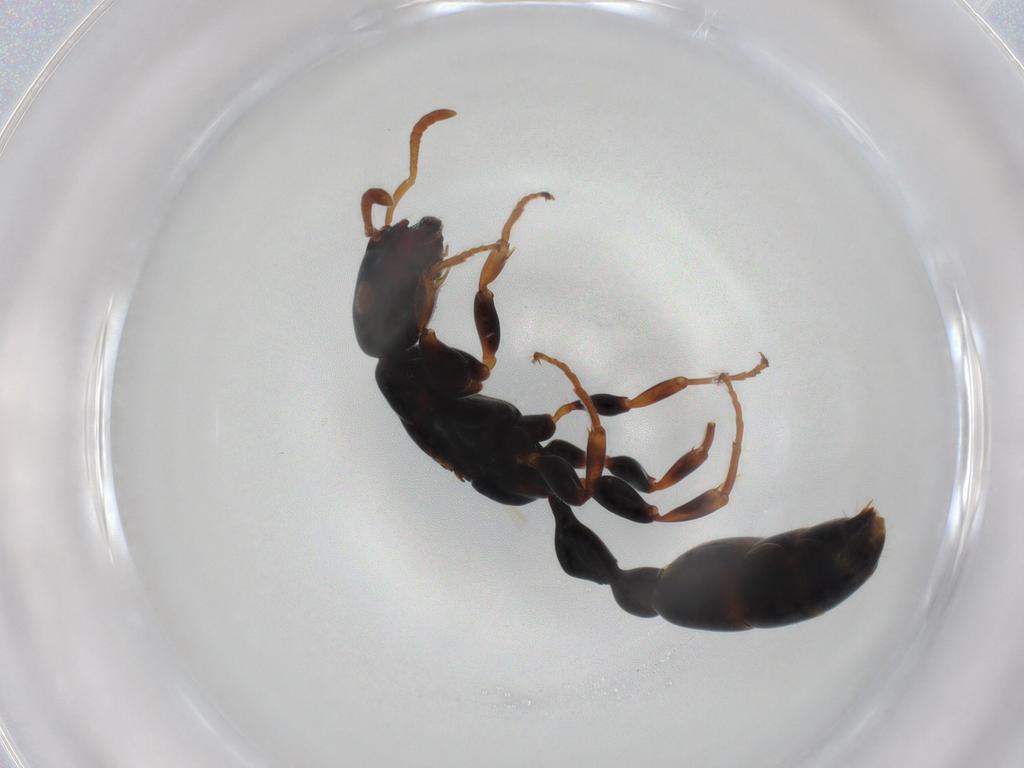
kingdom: Animalia
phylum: Arthropoda
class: Insecta
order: Hymenoptera
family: Formicidae
